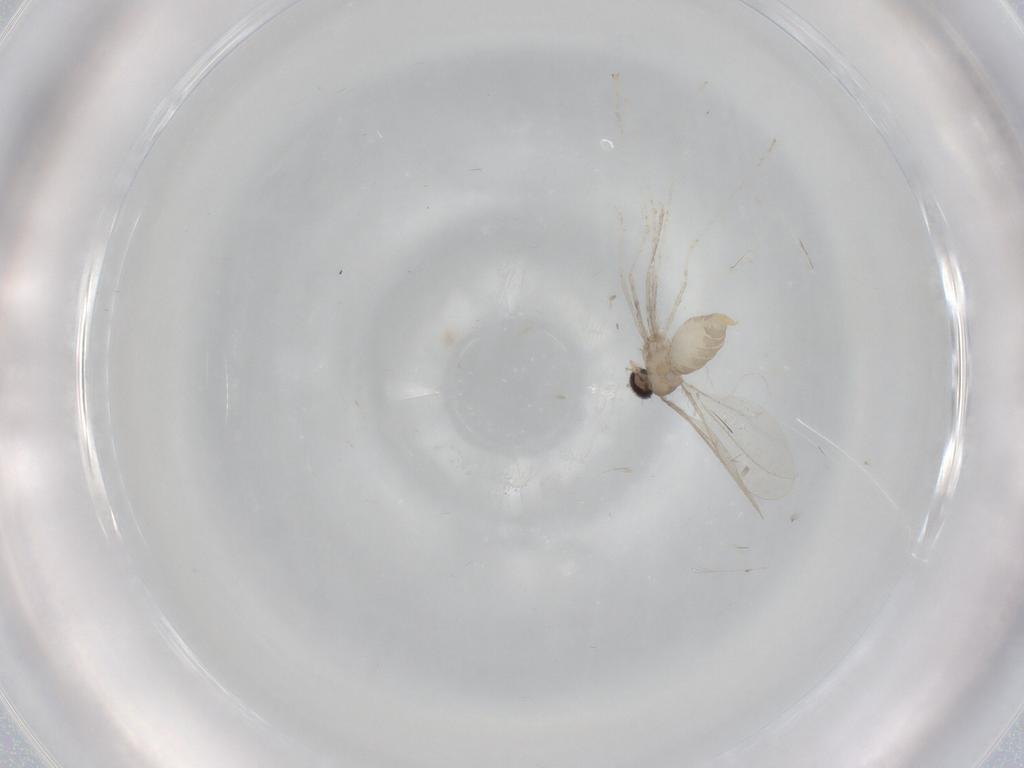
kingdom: Animalia
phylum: Arthropoda
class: Insecta
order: Diptera
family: Cecidomyiidae
